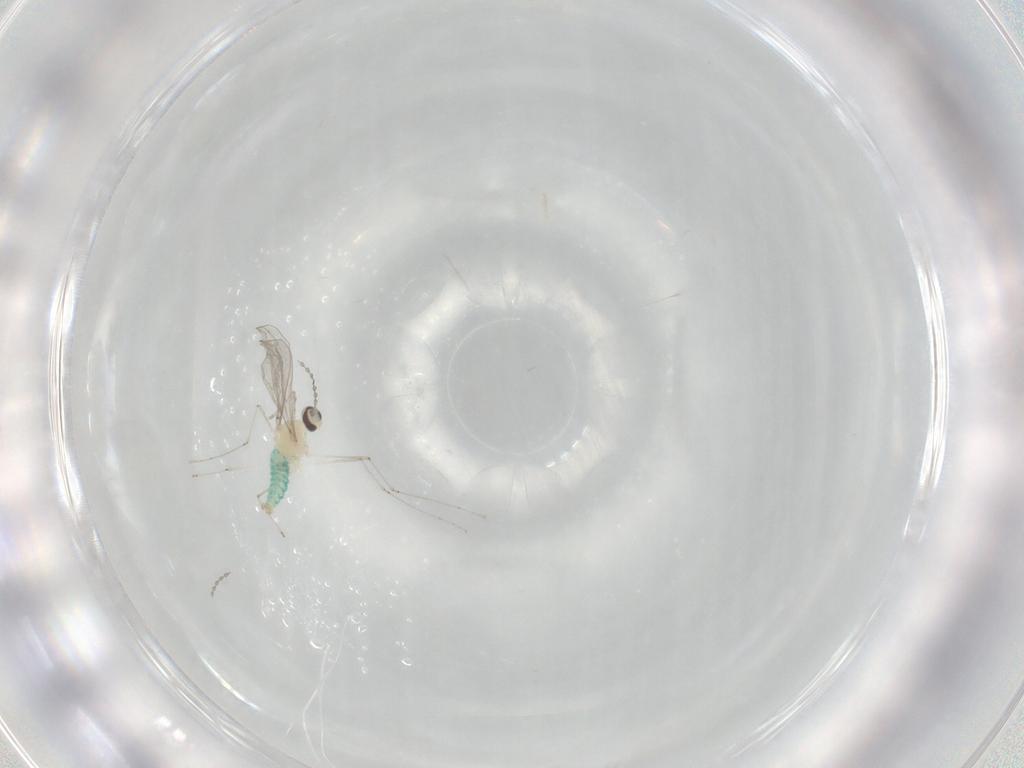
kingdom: Animalia
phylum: Arthropoda
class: Insecta
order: Diptera
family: Cecidomyiidae
